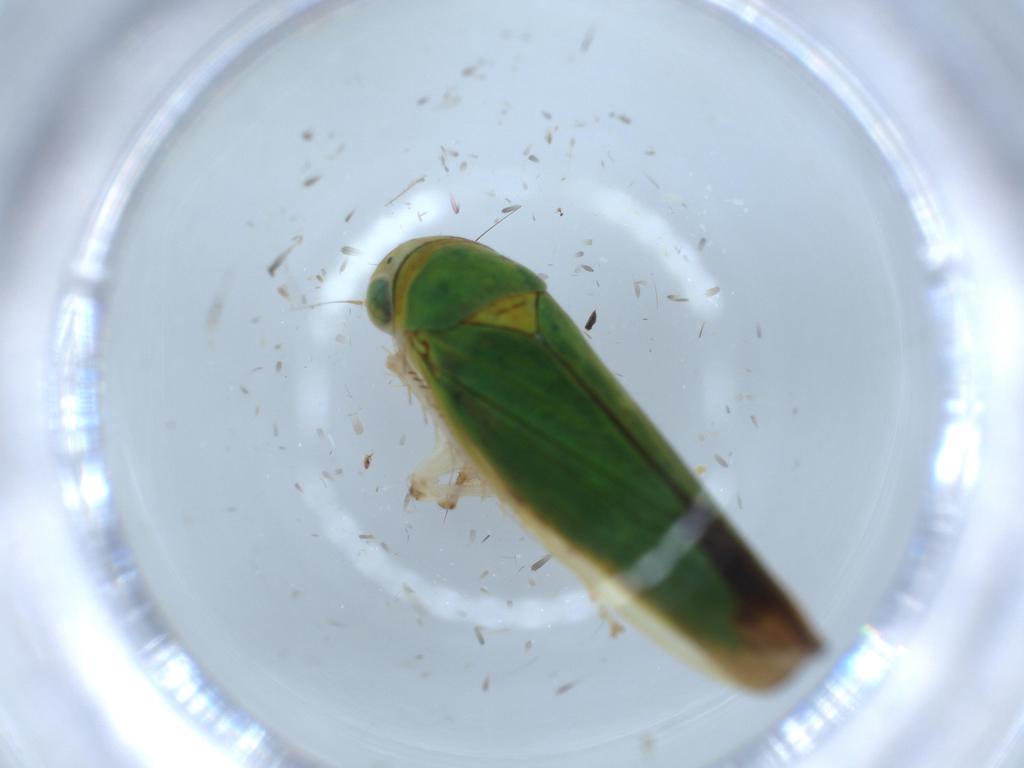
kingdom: Animalia
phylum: Arthropoda
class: Insecta
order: Hemiptera
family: Cicadellidae
